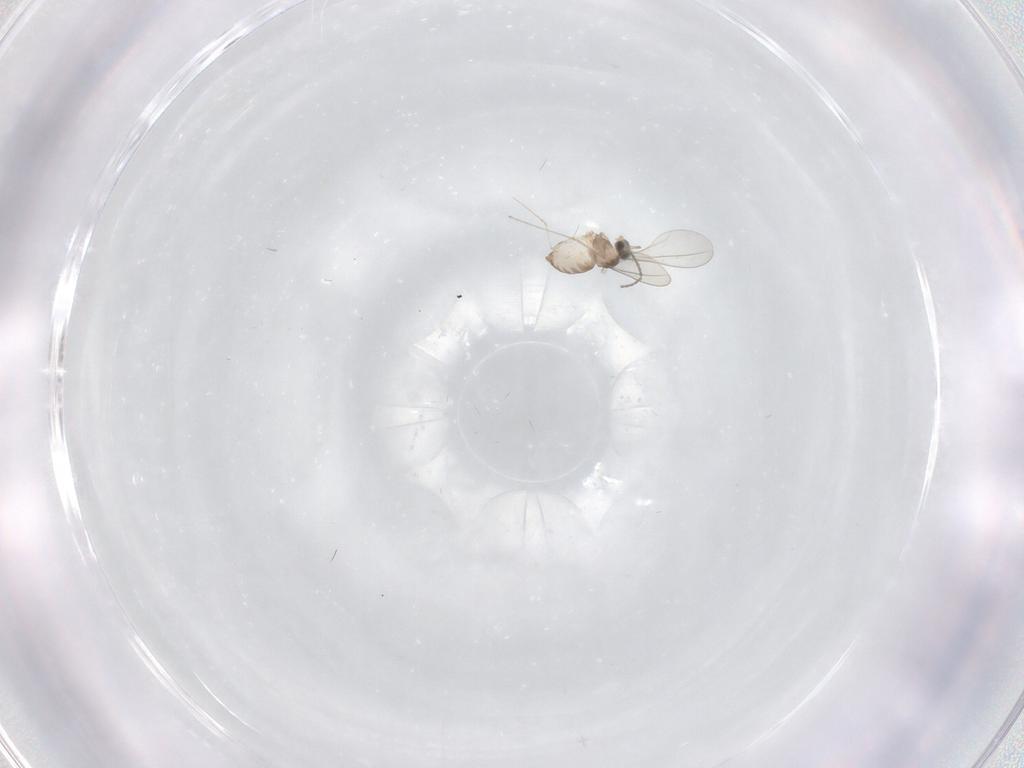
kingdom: Animalia
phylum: Arthropoda
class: Insecta
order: Diptera
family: Cecidomyiidae
